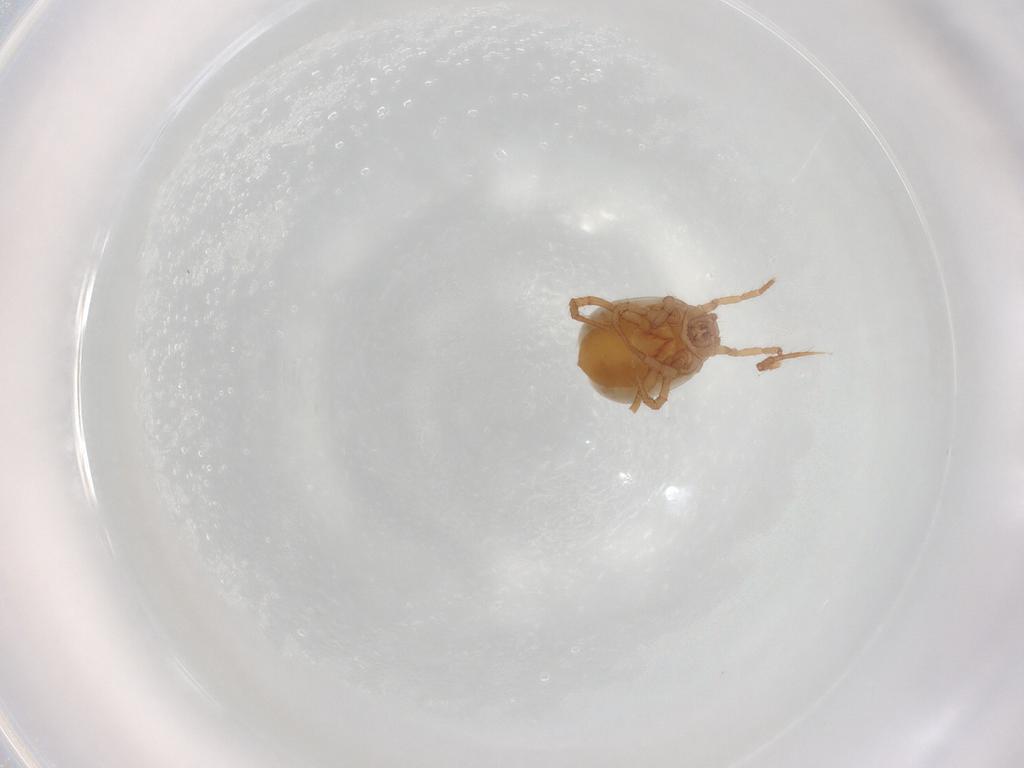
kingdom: Animalia
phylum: Arthropoda
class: Arachnida
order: Mesostigmata
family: Parasitidae
